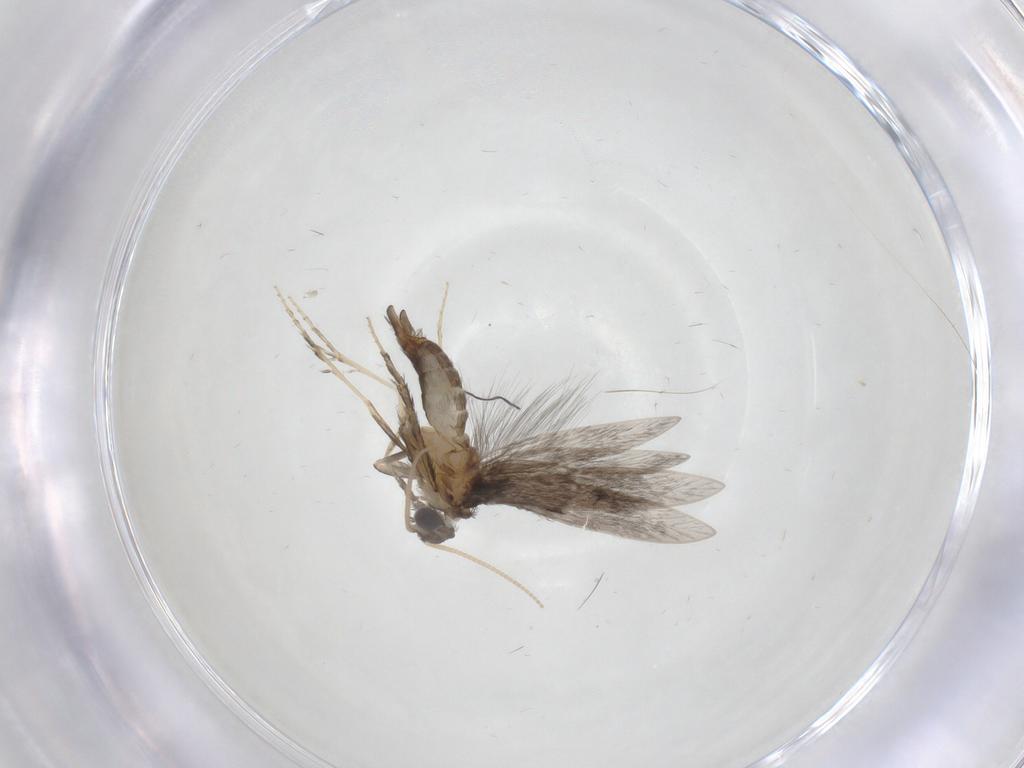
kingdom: Animalia
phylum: Arthropoda
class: Insecta
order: Trichoptera
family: Hydroptilidae
